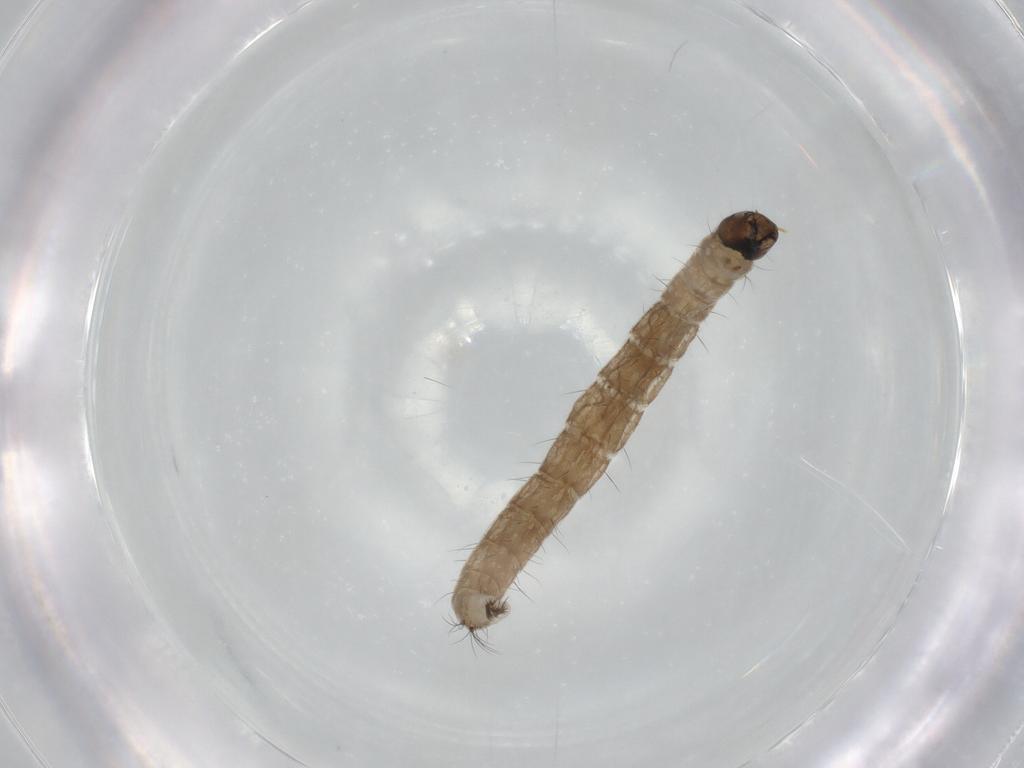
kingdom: Animalia
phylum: Arthropoda
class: Insecta
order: Diptera
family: Chironomidae
